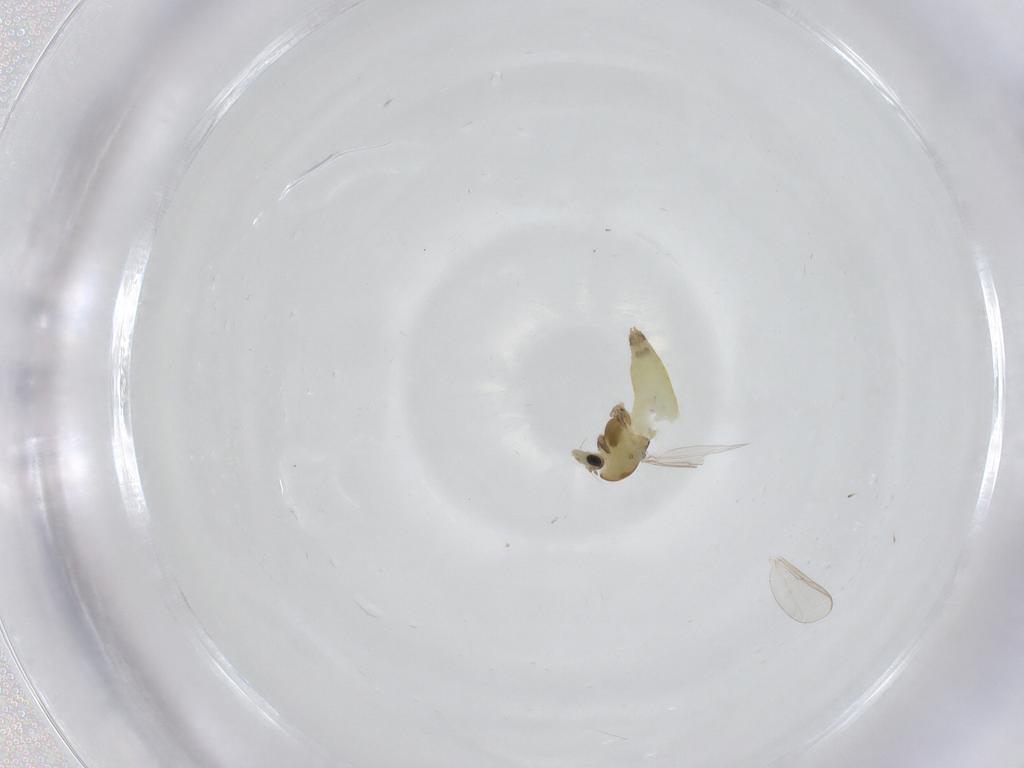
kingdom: Animalia
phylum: Arthropoda
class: Insecta
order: Diptera
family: Chironomidae
